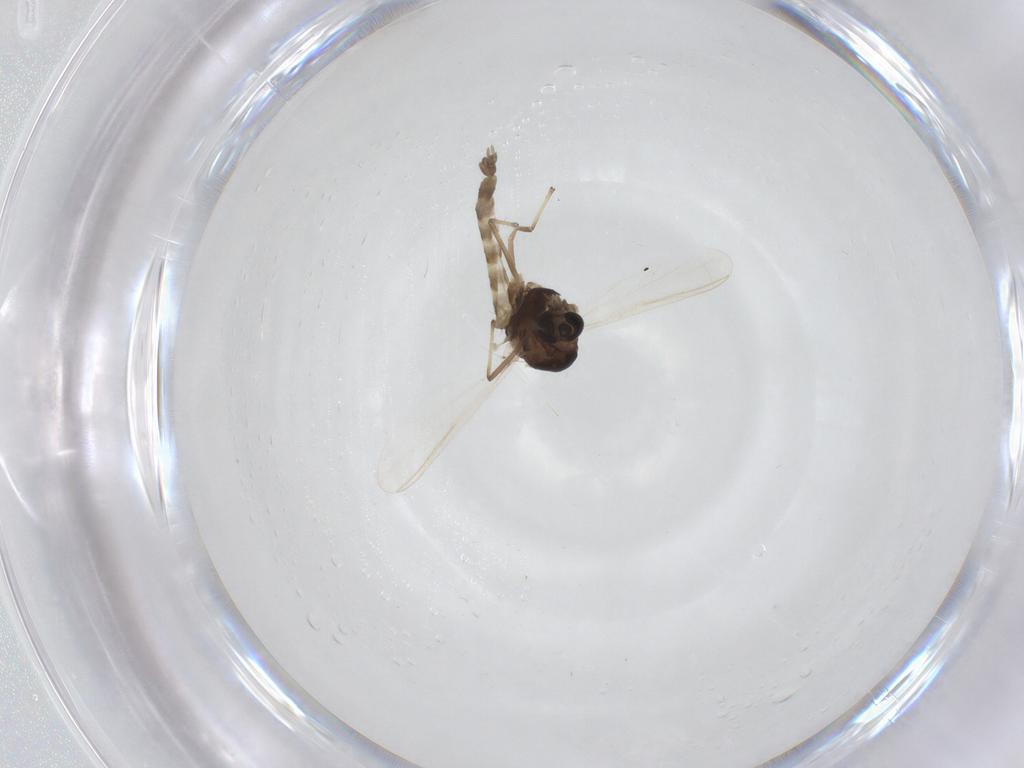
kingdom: Animalia
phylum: Arthropoda
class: Insecta
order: Diptera
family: Chironomidae
